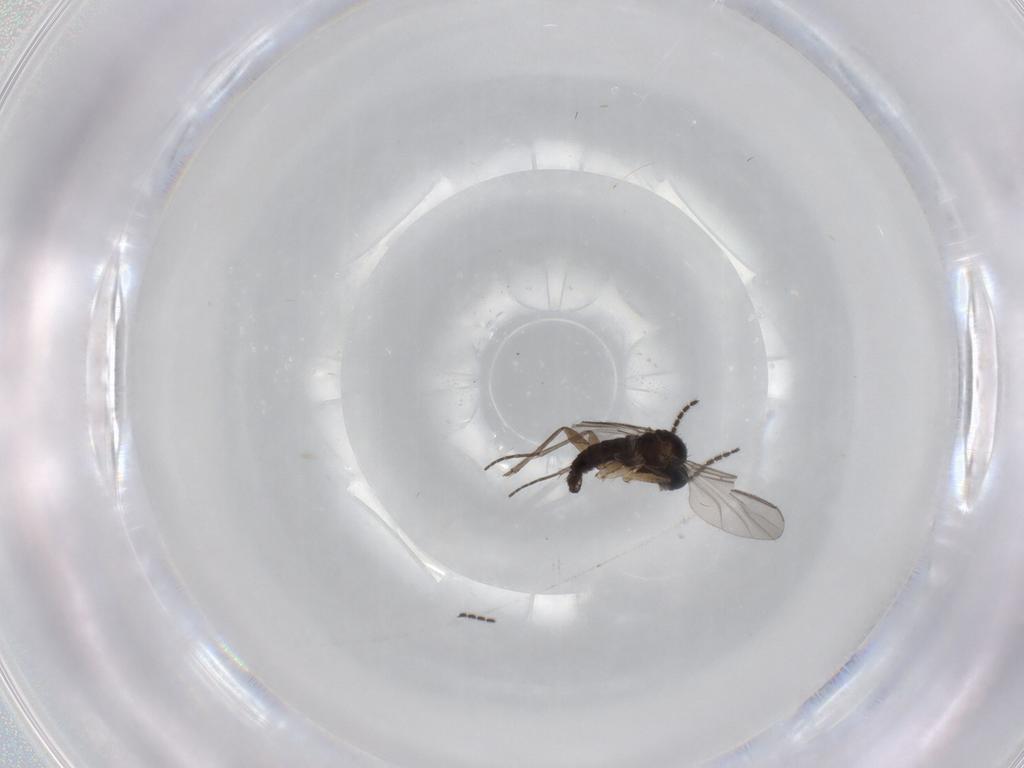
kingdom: Animalia
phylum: Arthropoda
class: Insecta
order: Diptera
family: Sciaridae
